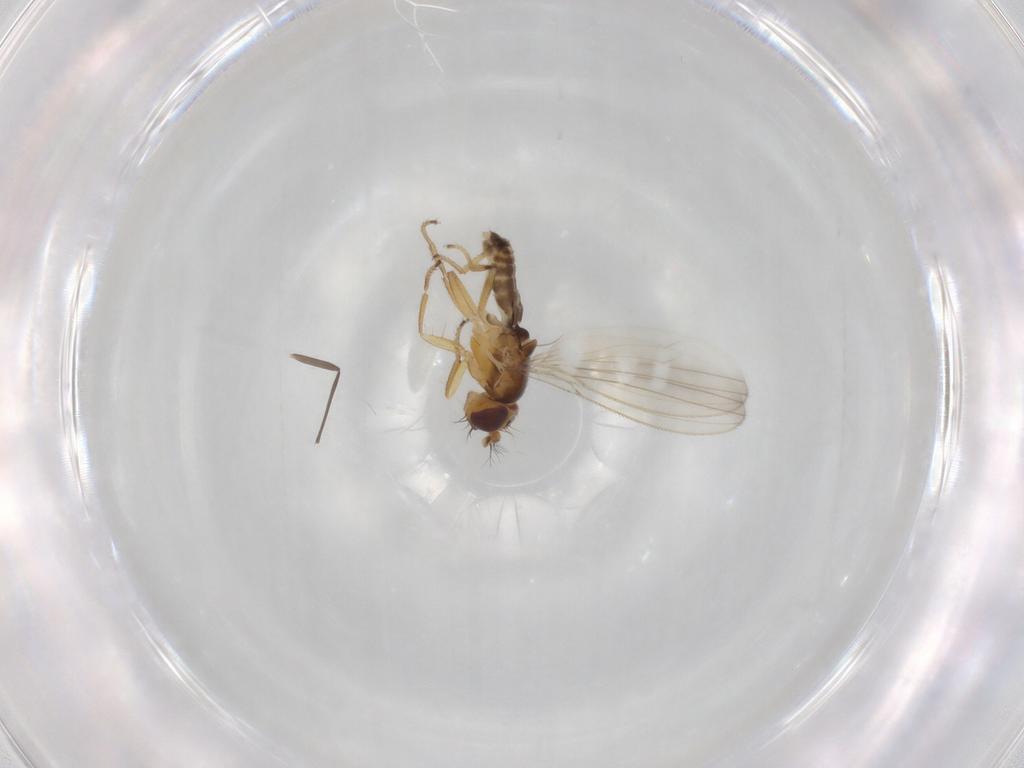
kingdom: Animalia
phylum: Arthropoda
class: Insecta
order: Diptera
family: Periscelididae
